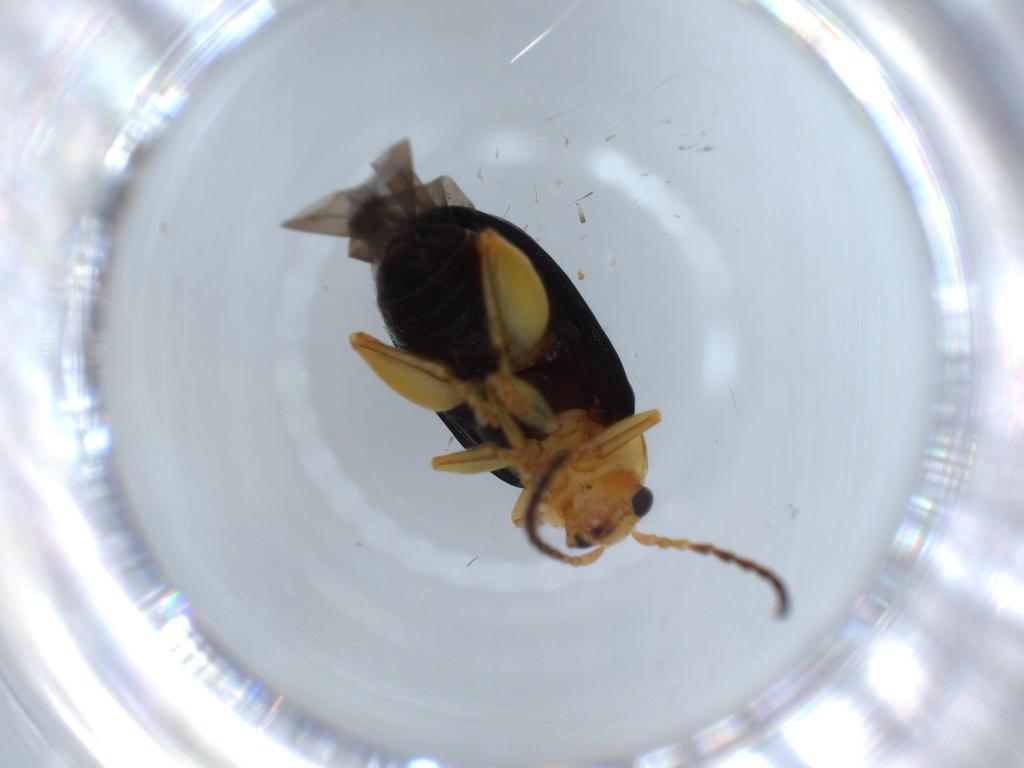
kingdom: Animalia
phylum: Arthropoda
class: Insecta
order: Coleoptera
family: Chrysomelidae
